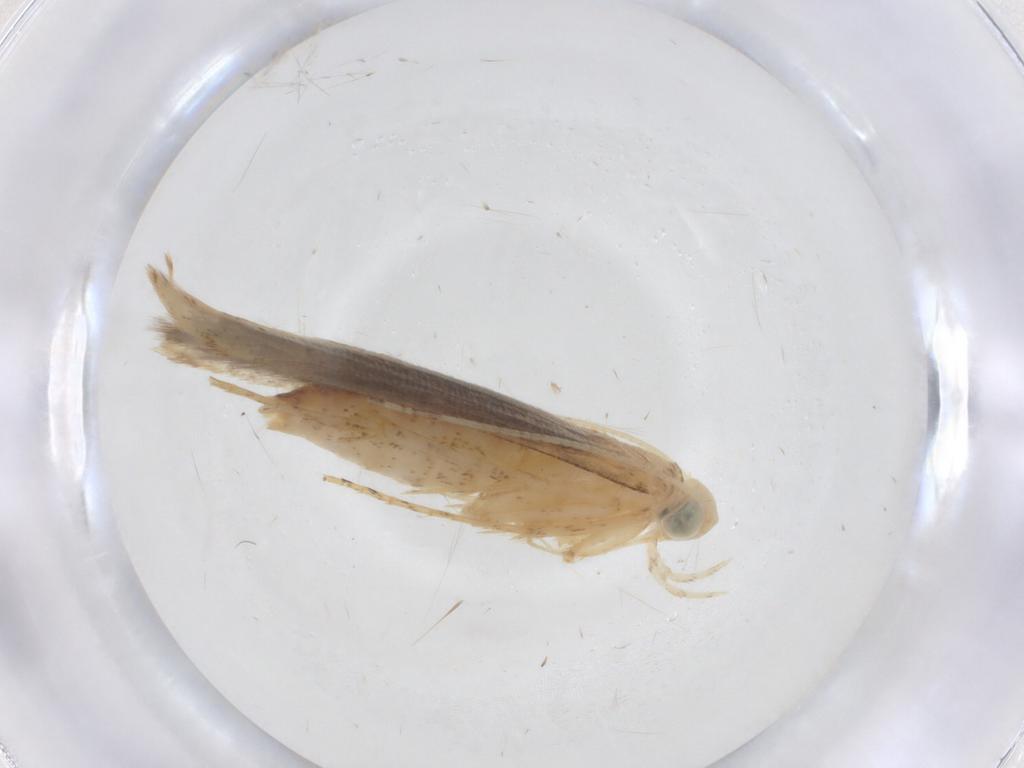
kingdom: Animalia
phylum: Arthropoda
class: Insecta
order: Lepidoptera
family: Batrachedridae
